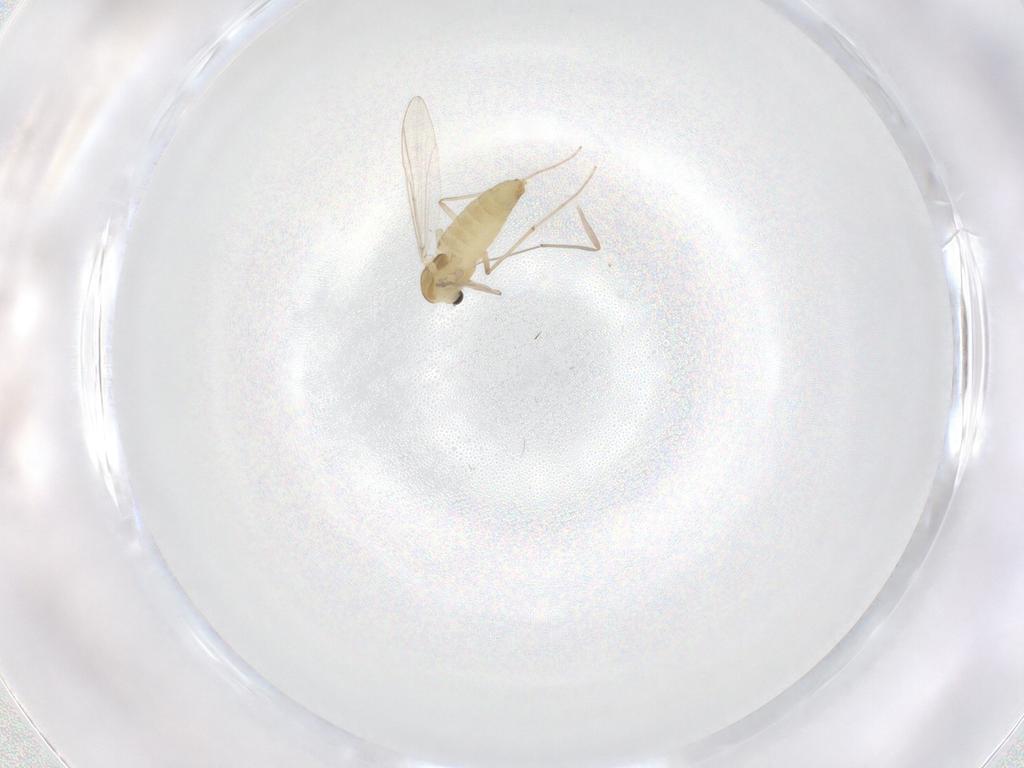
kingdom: Animalia
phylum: Arthropoda
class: Insecta
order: Diptera
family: Chironomidae
